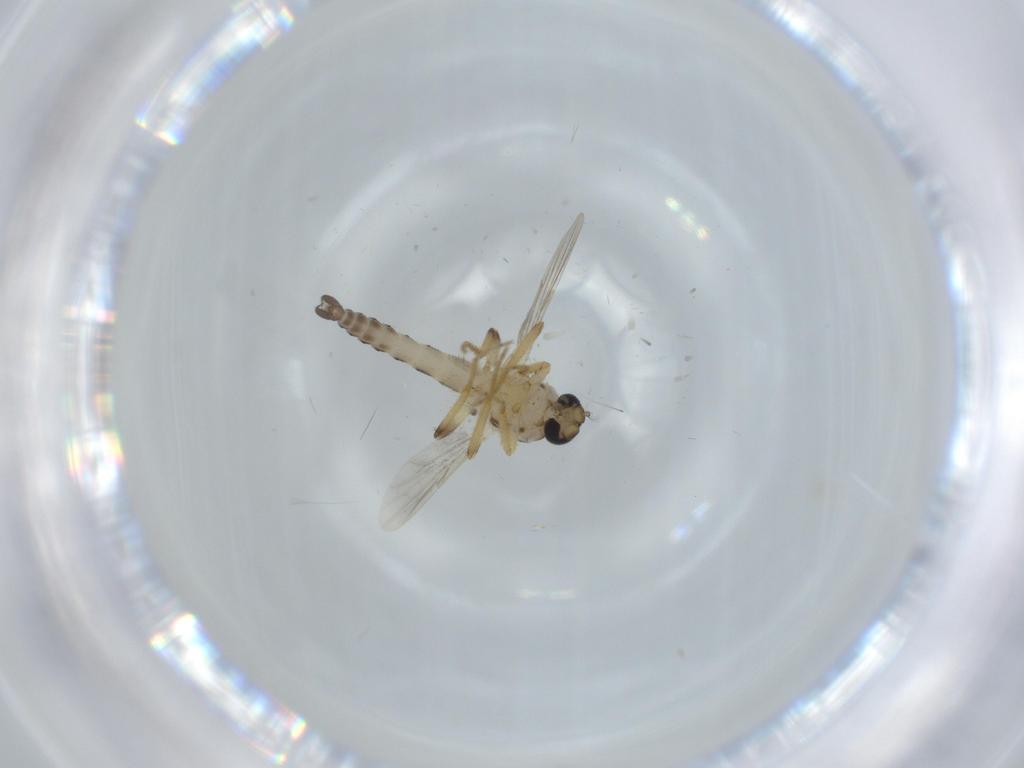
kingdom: Animalia
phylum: Arthropoda
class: Insecta
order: Diptera
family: Ceratopogonidae
